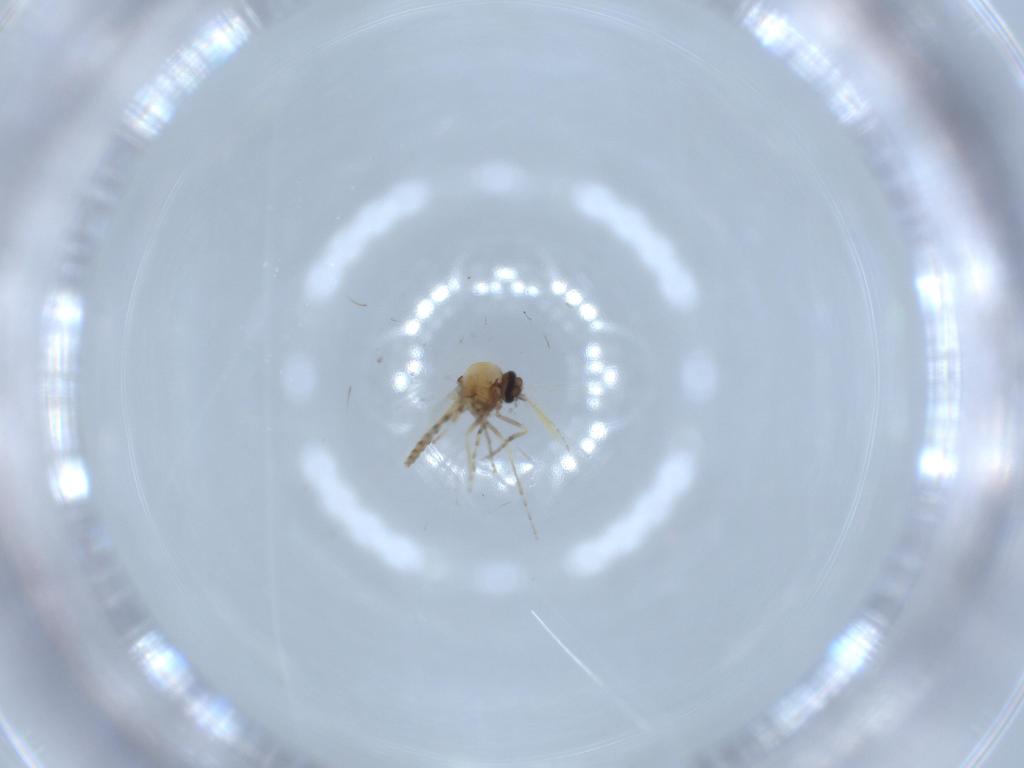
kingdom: Animalia
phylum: Arthropoda
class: Insecta
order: Diptera
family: Ceratopogonidae
